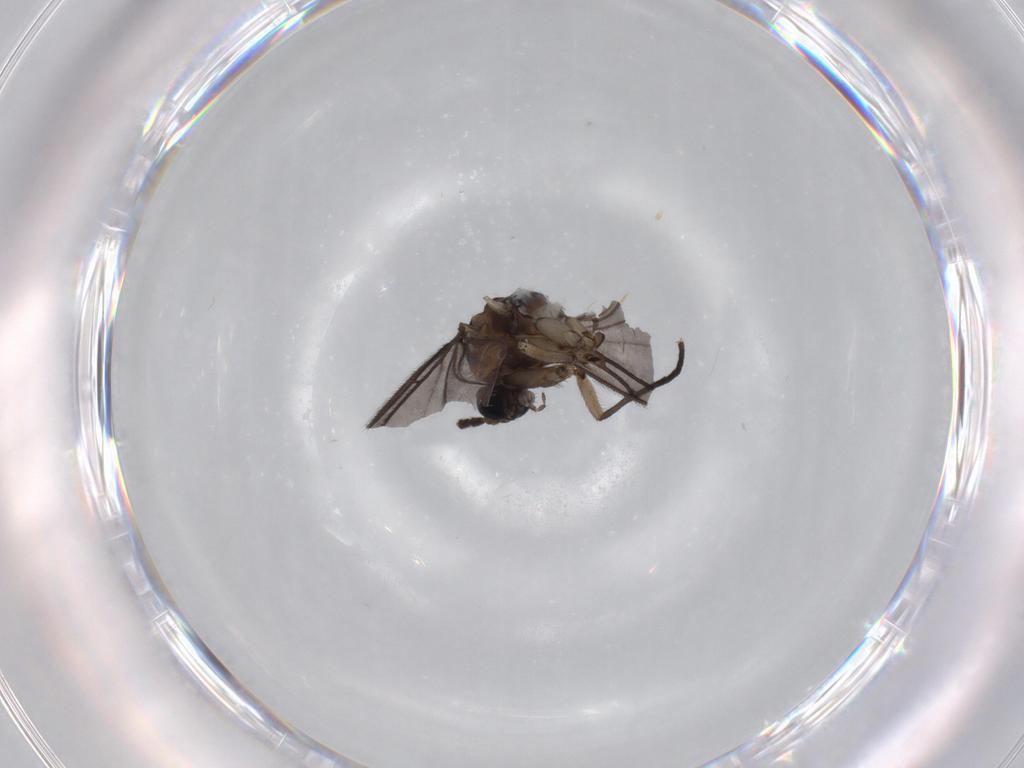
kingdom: Animalia
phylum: Arthropoda
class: Insecta
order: Diptera
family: Sciaridae
